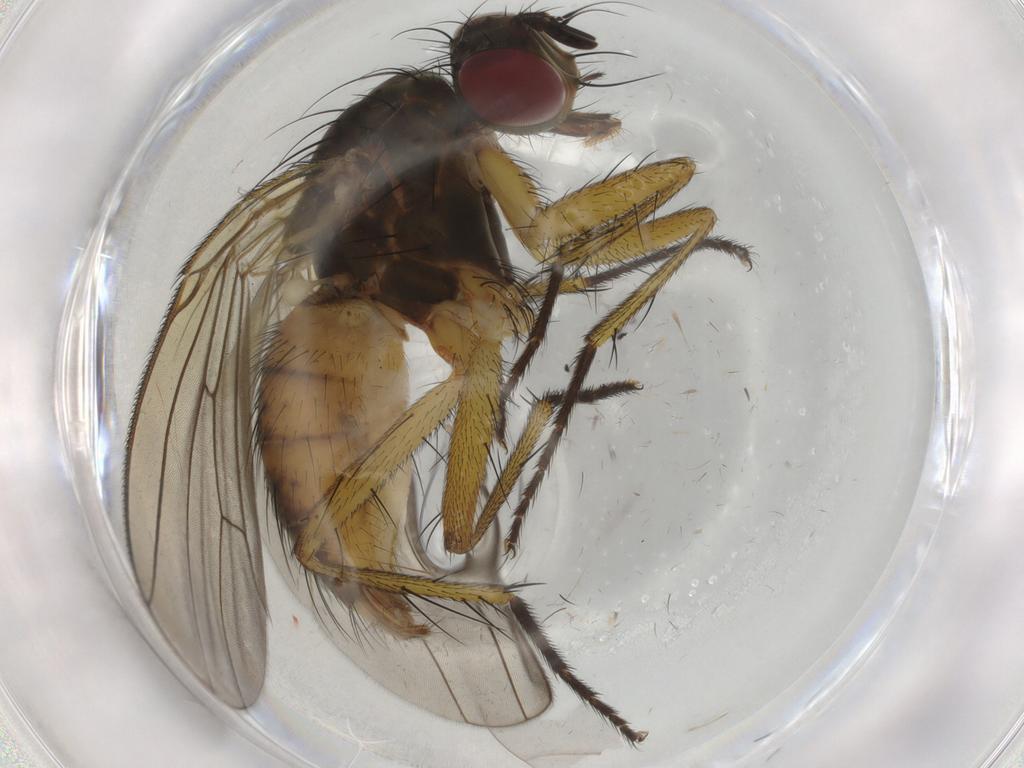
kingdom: Animalia
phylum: Arthropoda
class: Insecta
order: Diptera
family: Muscidae
